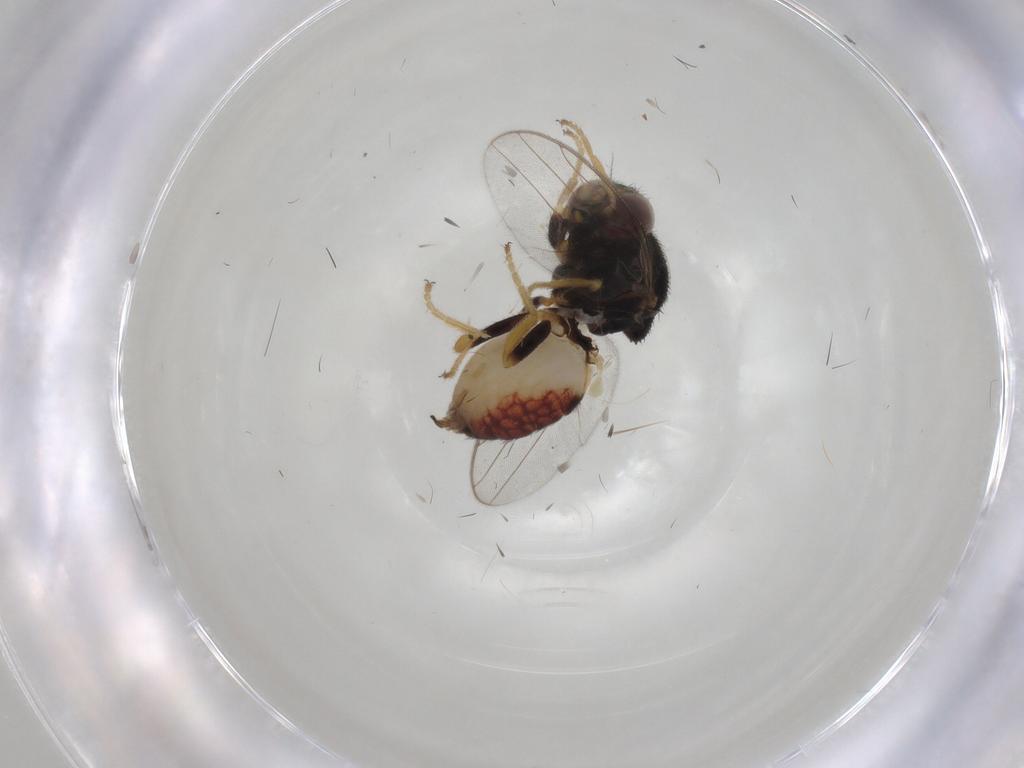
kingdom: Animalia
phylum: Arthropoda
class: Insecta
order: Diptera
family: Chloropidae
